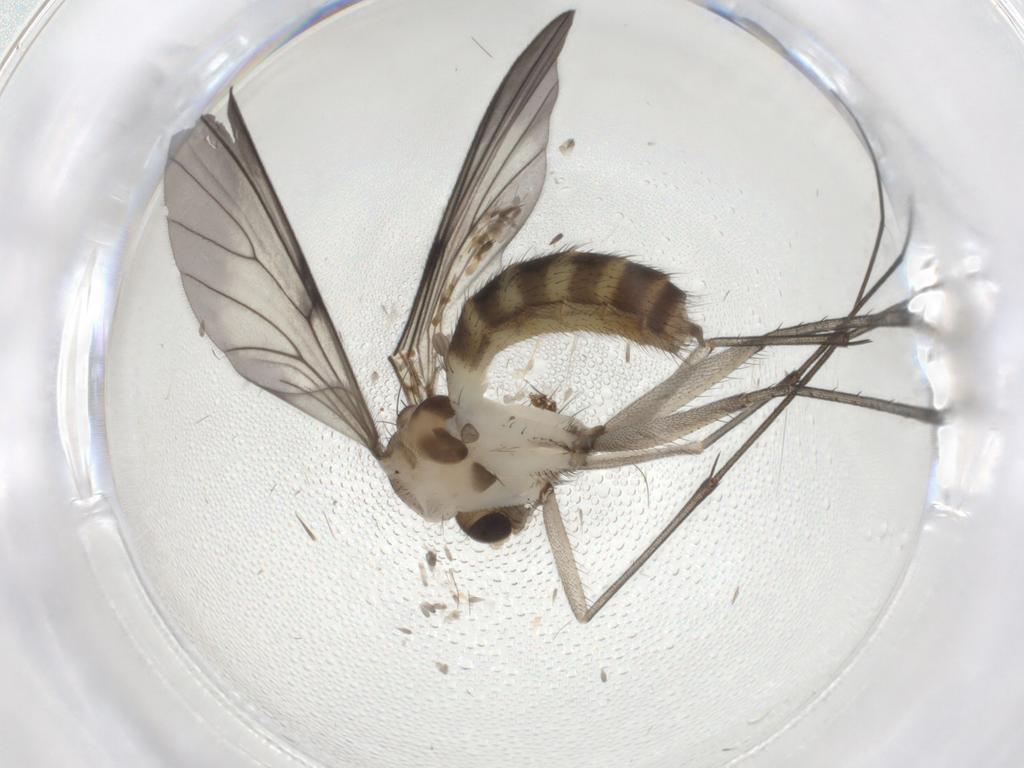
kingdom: Animalia
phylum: Arthropoda
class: Insecta
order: Diptera
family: Mycetophilidae
